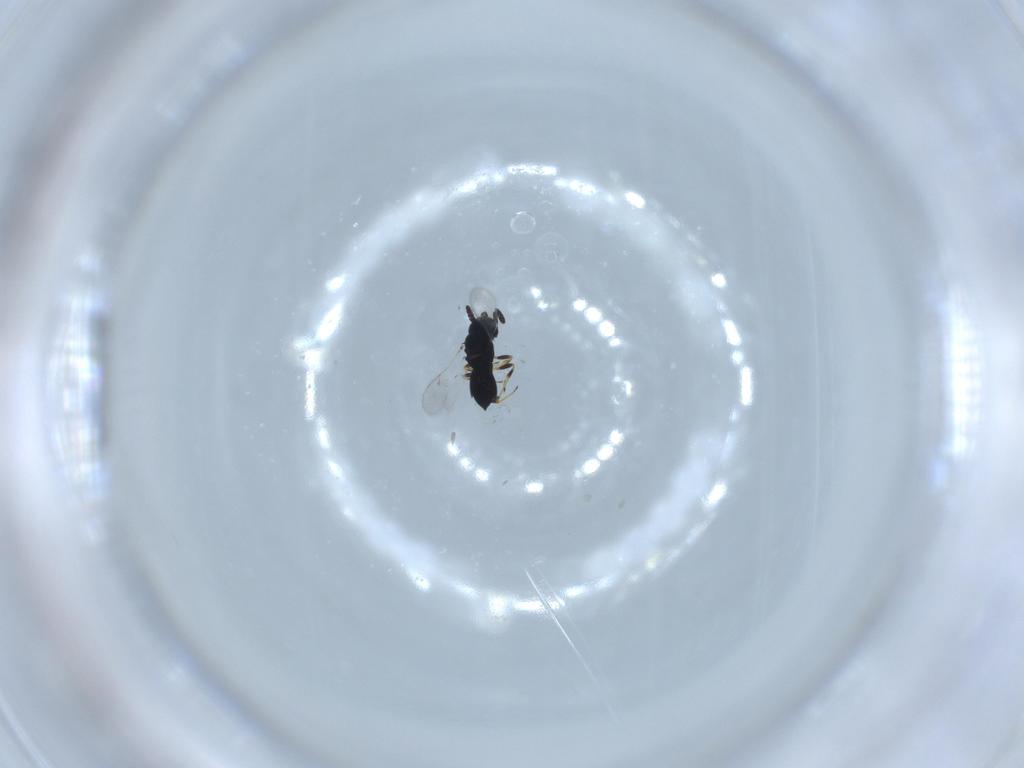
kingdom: Animalia
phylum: Arthropoda
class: Insecta
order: Hymenoptera
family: Scelionidae
